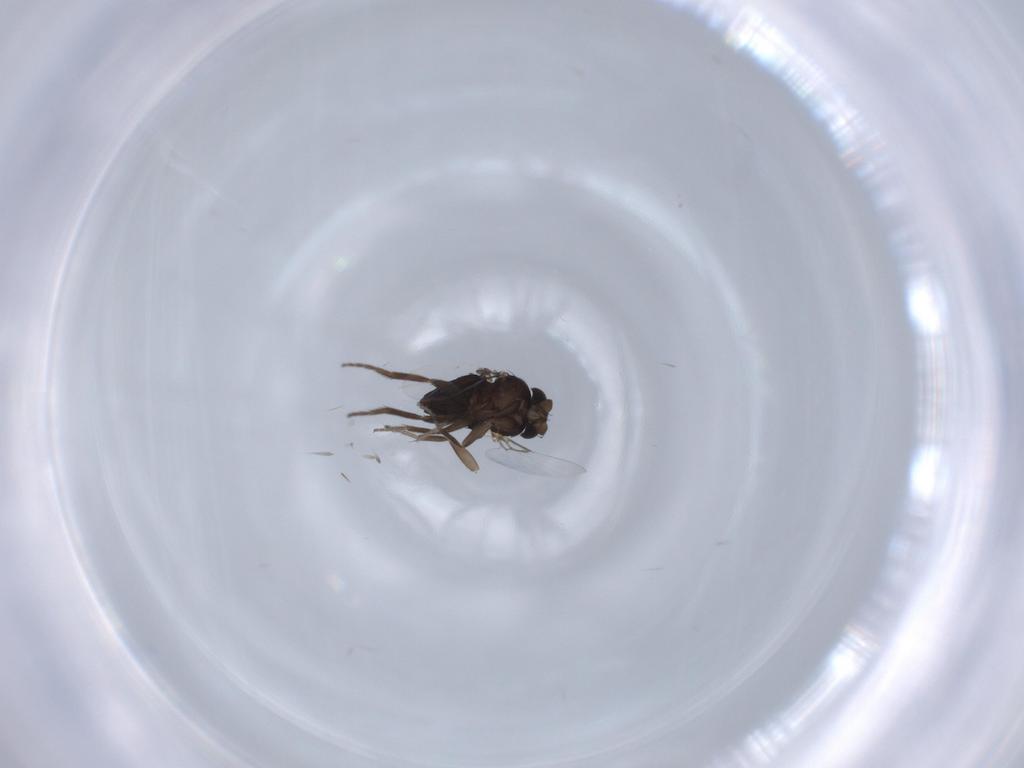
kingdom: Animalia
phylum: Arthropoda
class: Insecta
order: Diptera
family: Phoridae
